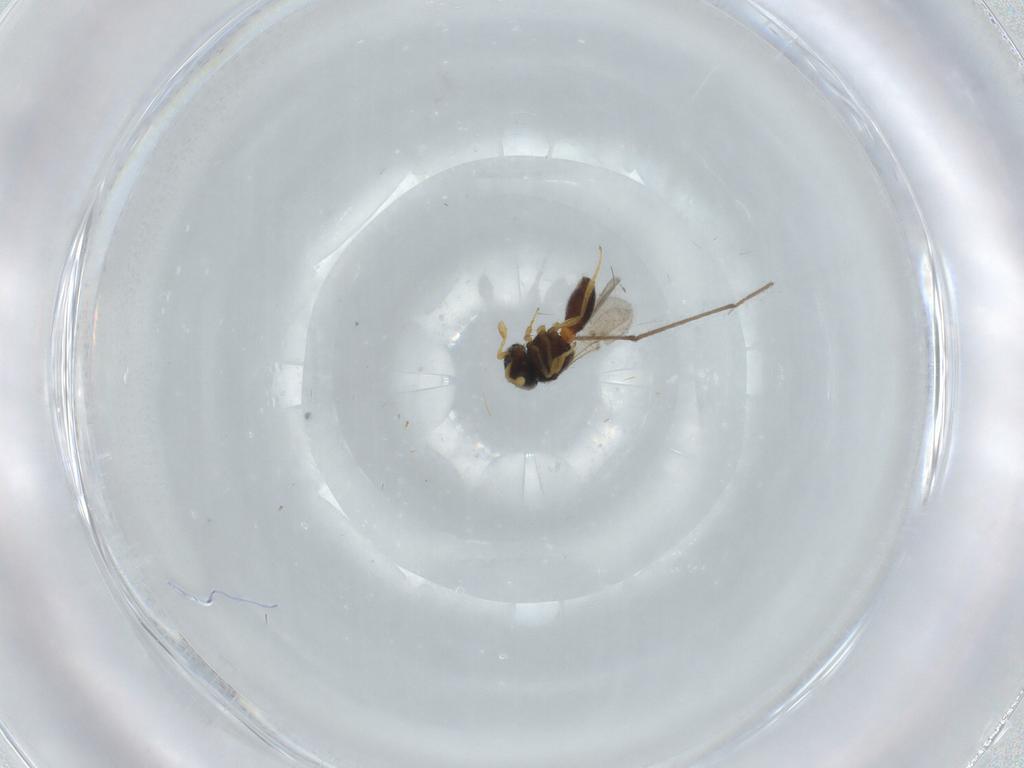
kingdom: Animalia
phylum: Arthropoda
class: Insecta
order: Hymenoptera
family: Scelionidae
